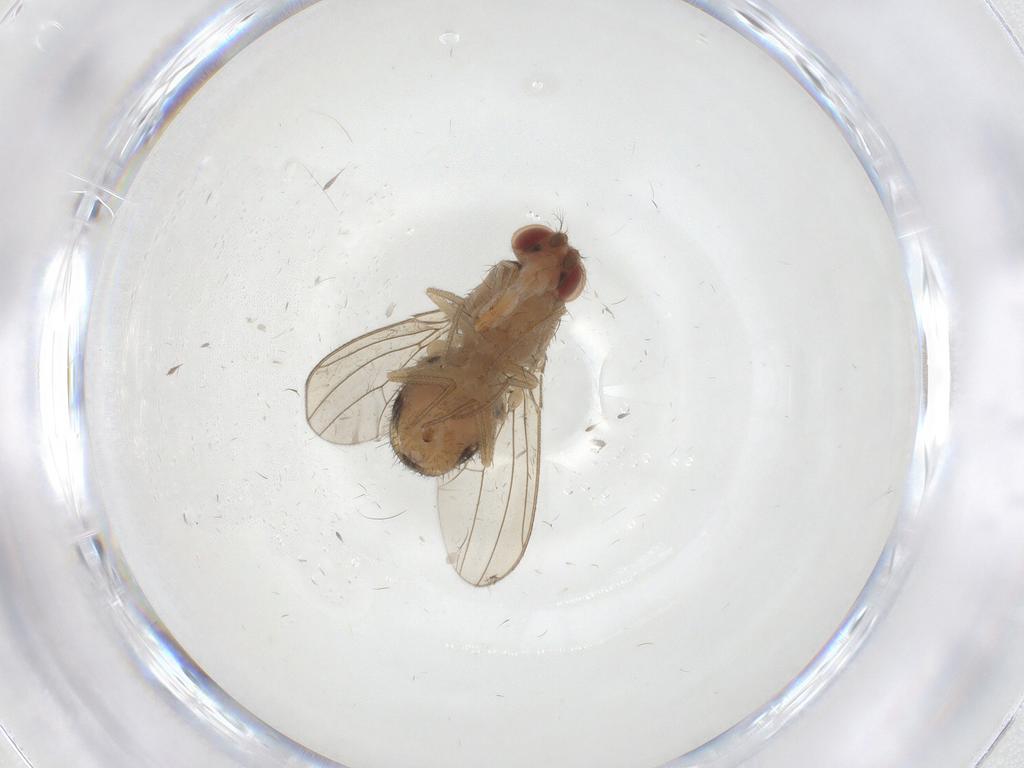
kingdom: Animalia
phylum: Arthropoda
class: Insecta
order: Diptera
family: Drosophilidae
